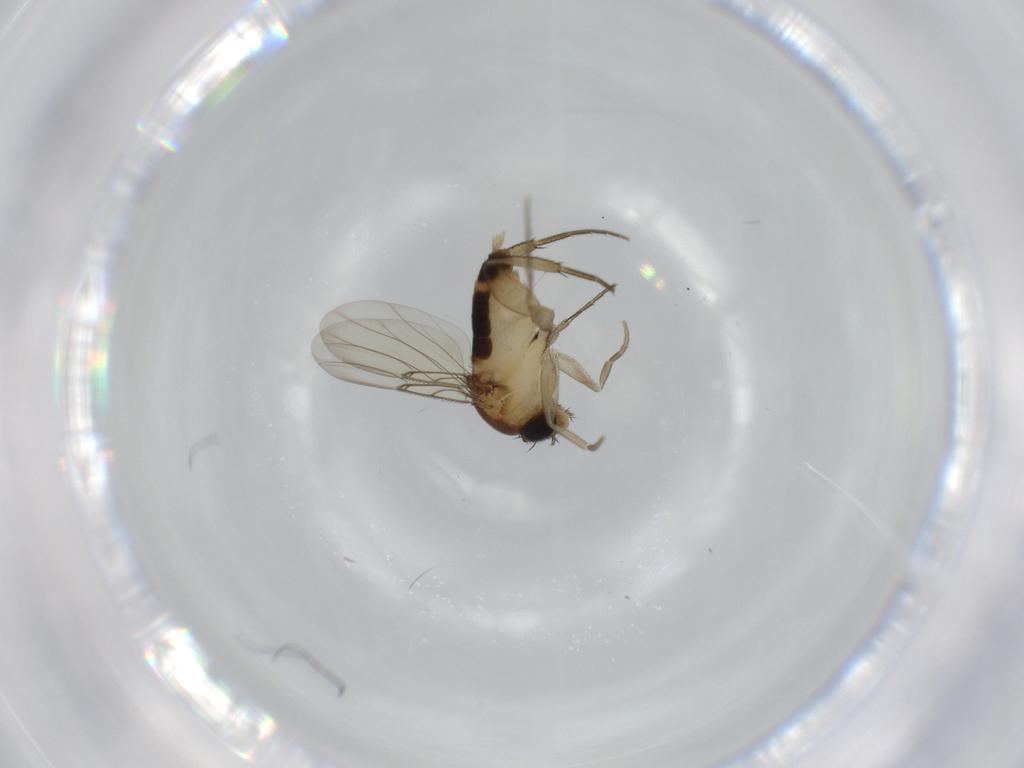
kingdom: Animalia
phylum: Arthropoda
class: Insecta
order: Diptera
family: Phoridae
